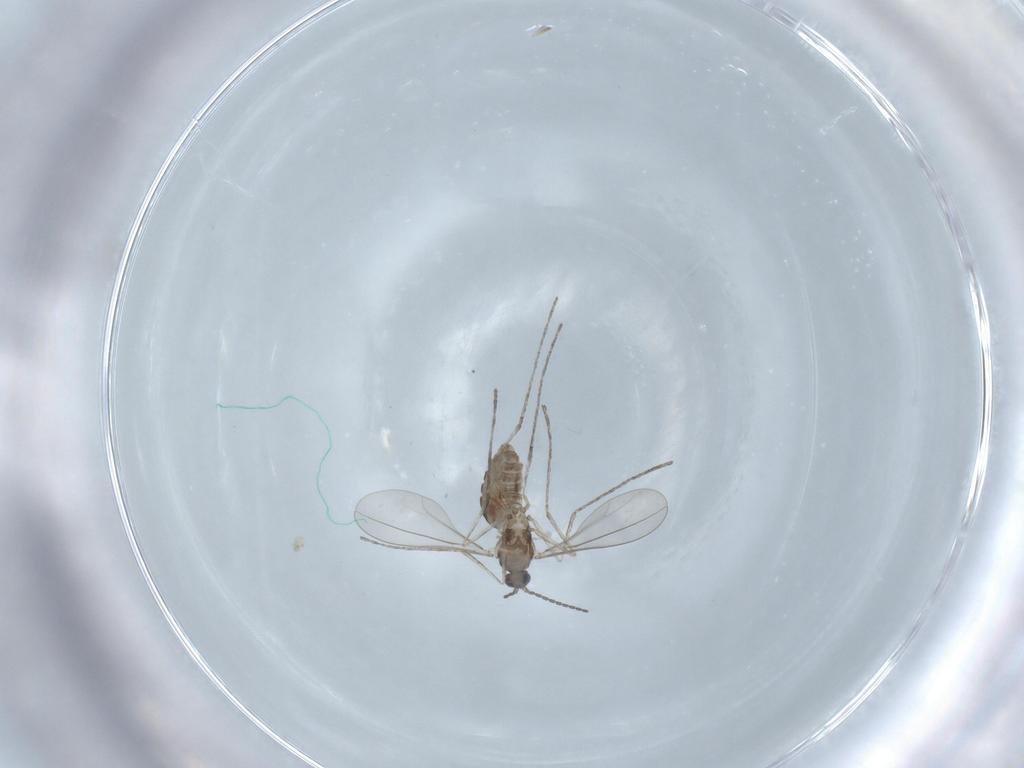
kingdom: Animalia
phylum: Arthropoda
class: Insecta
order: Diptera
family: Cecidomyiidae
